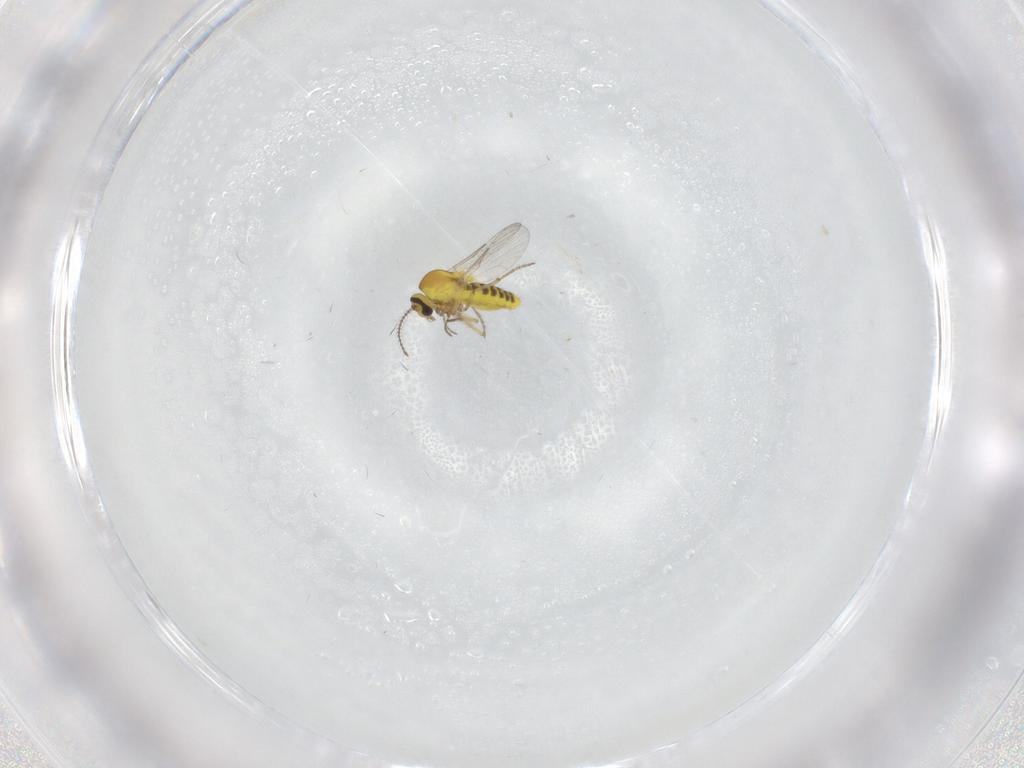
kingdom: Animalia
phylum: Arthropoda
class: Insecta
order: Diptera
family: Ceratopogonidae
